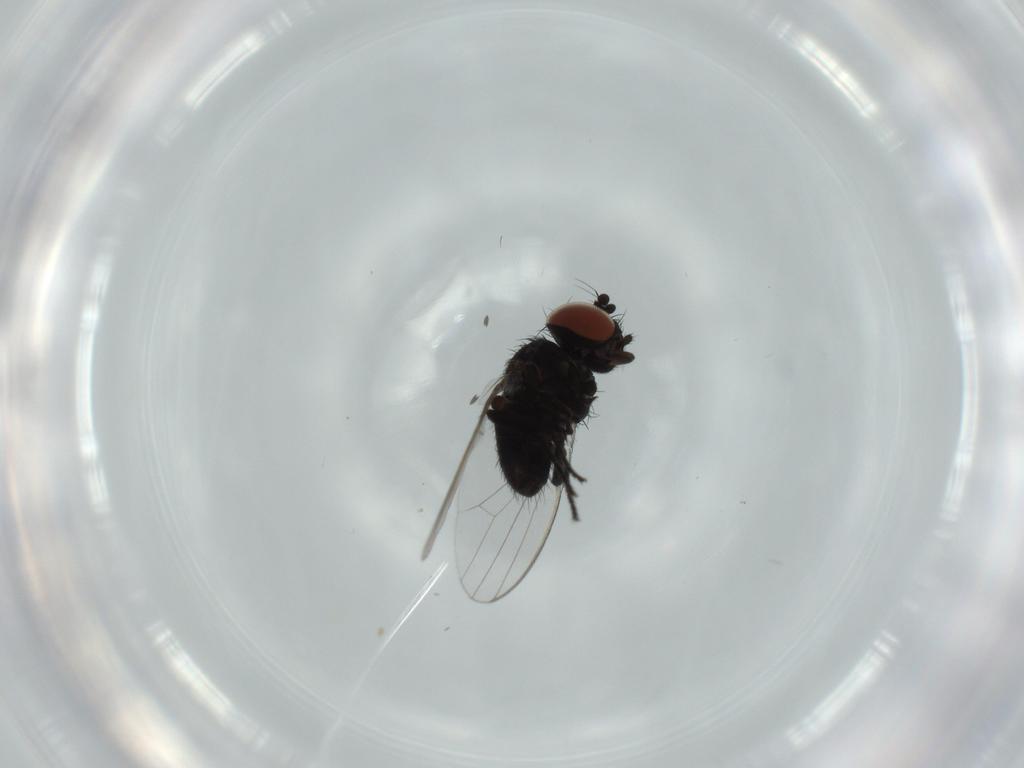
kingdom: Animalia
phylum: Arthropoda
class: Insecta
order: Diptera
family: Milichiidae
